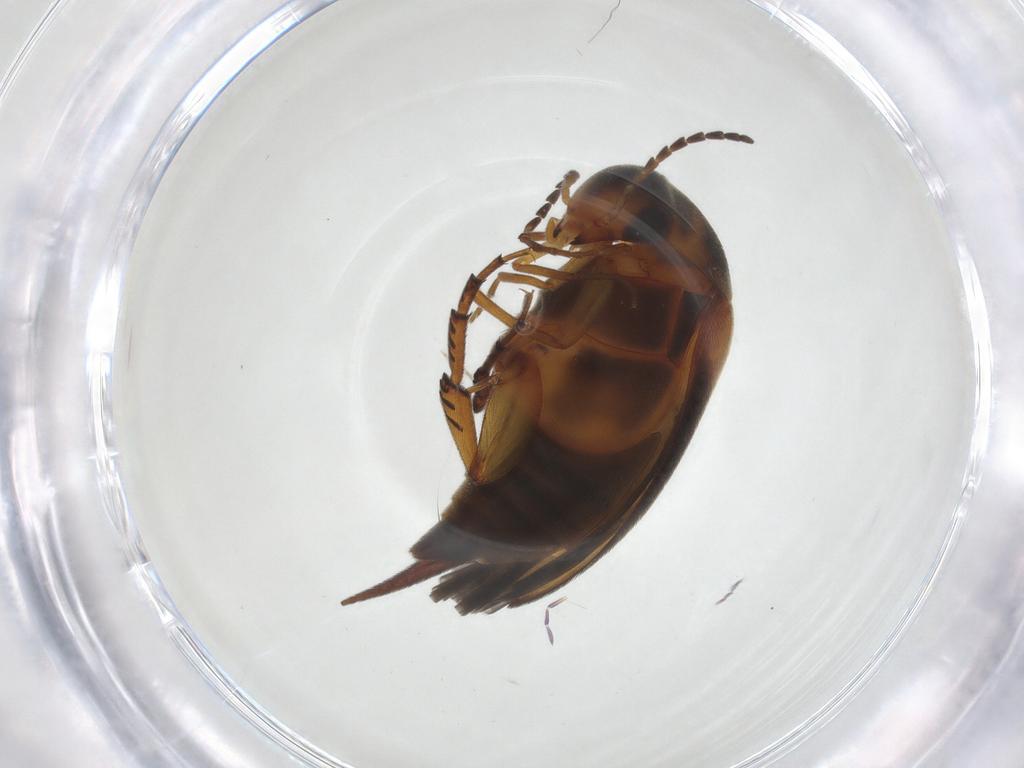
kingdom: Animalia
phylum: Arthropoda
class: Insecta
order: Coleoptera
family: Mordellidae
